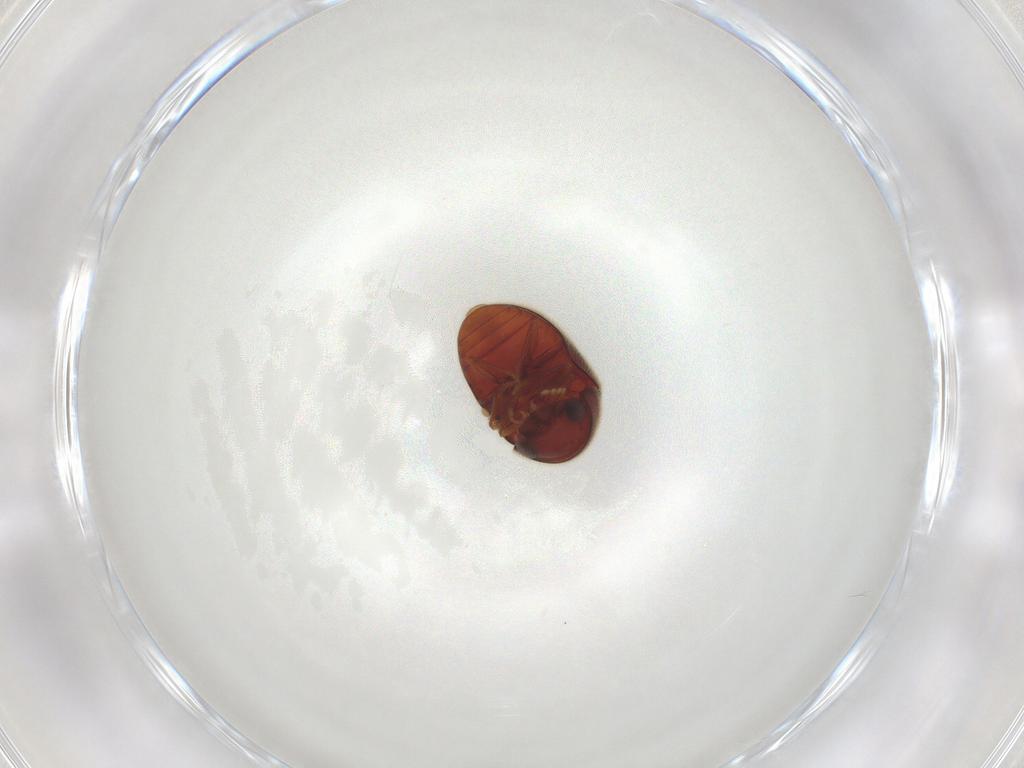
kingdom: Animalia
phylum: Arthropoda
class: Insecta
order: Coleoptera
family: Ptinidae
